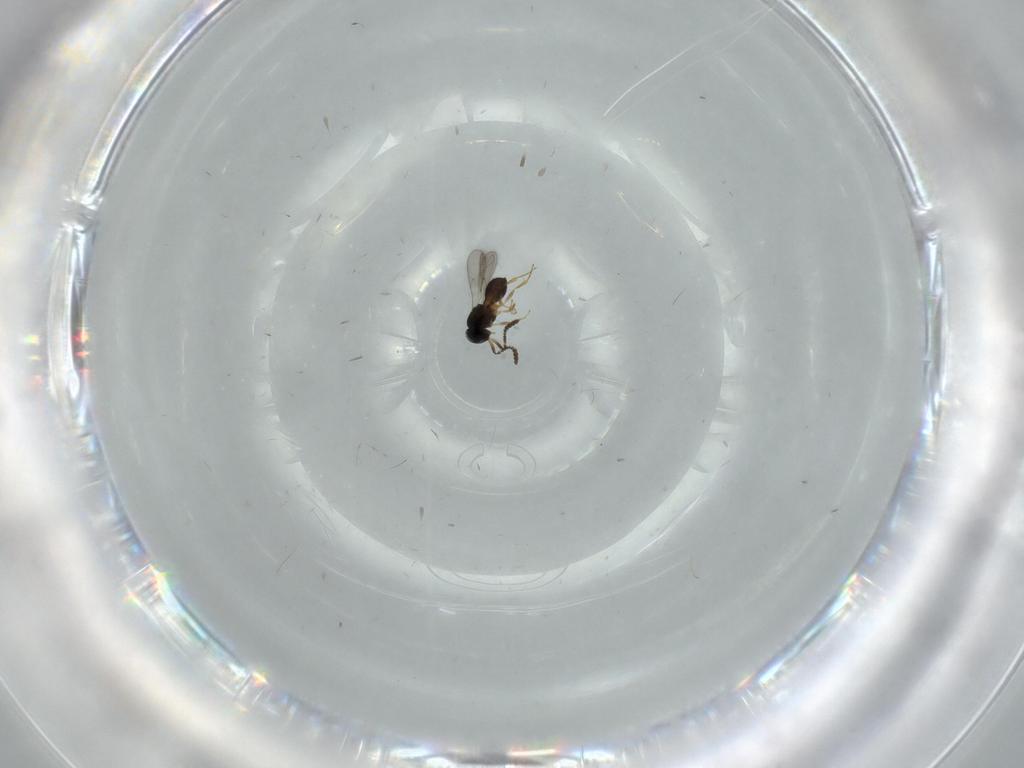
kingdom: Animalia
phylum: Arthropoda
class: Insecta
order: Hymenoptera
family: Scelionidae
